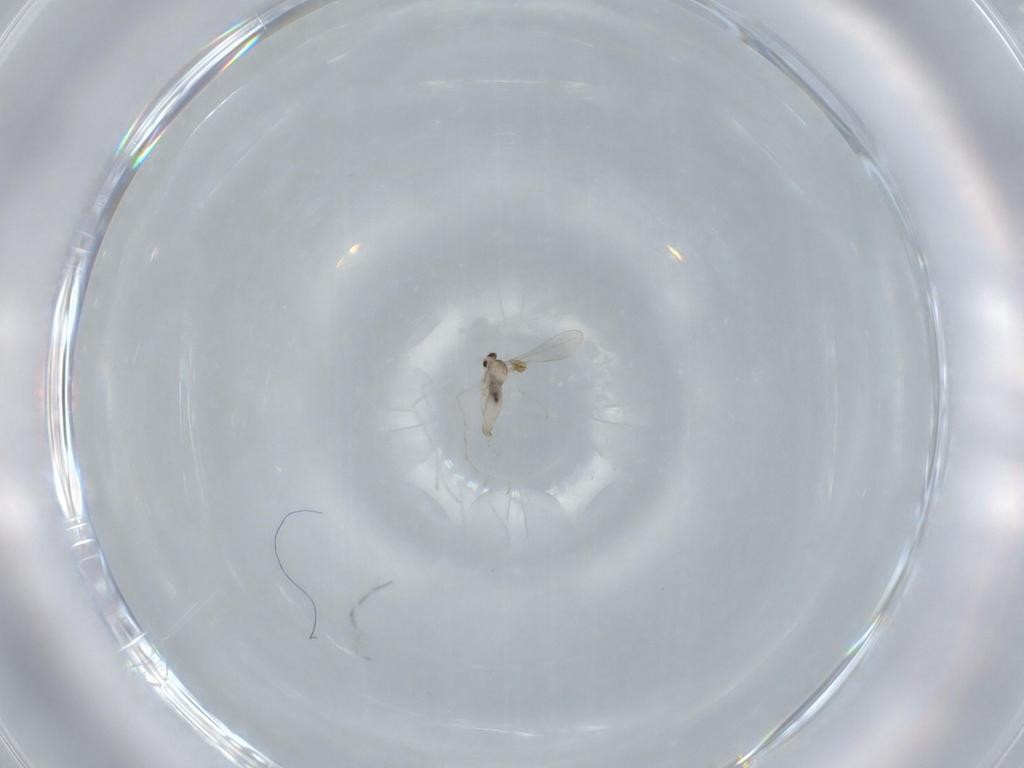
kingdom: Animalia
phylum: Arthropoda
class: Insecta
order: Diptera
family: Cecidomyiidae
